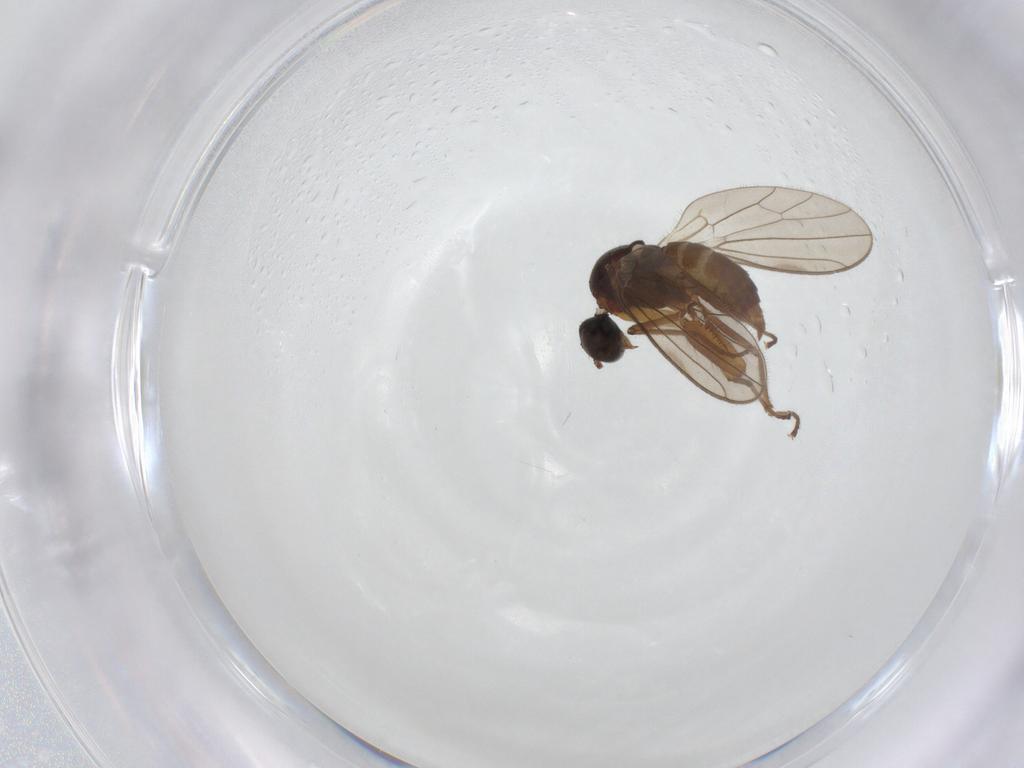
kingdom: Animalia
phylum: Arthropoda
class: Insecta
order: Diptera
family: Empididae
